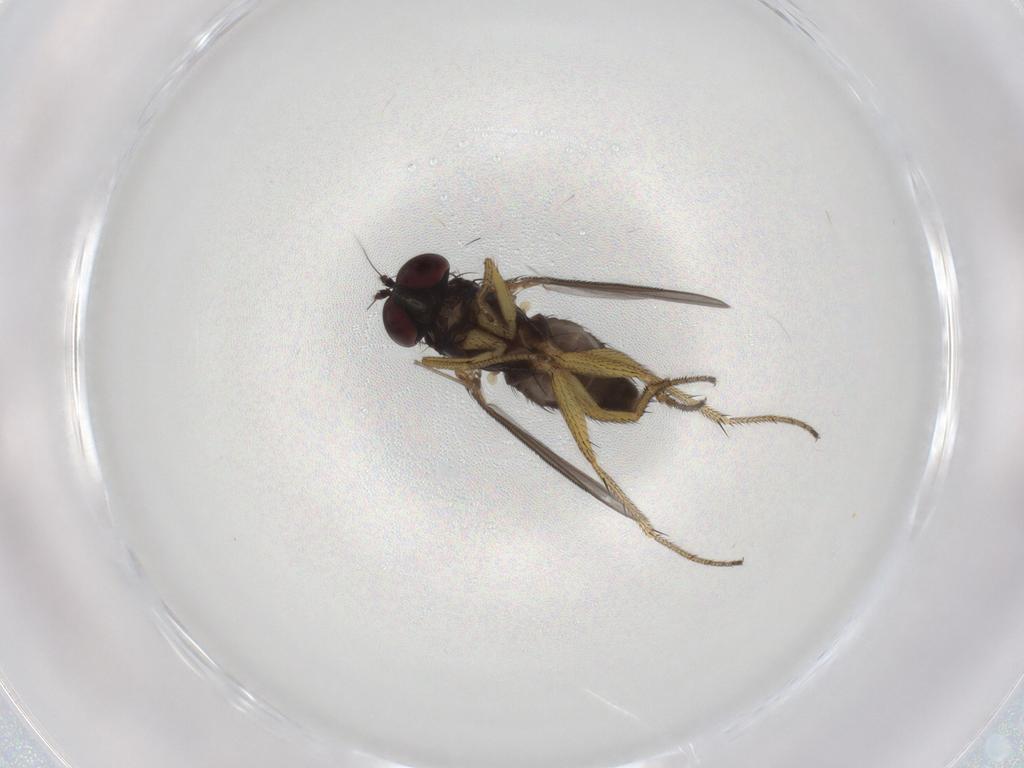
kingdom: Animalia
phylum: Arthropoda
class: Insecta
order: Diptera
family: Dolichopodidae
